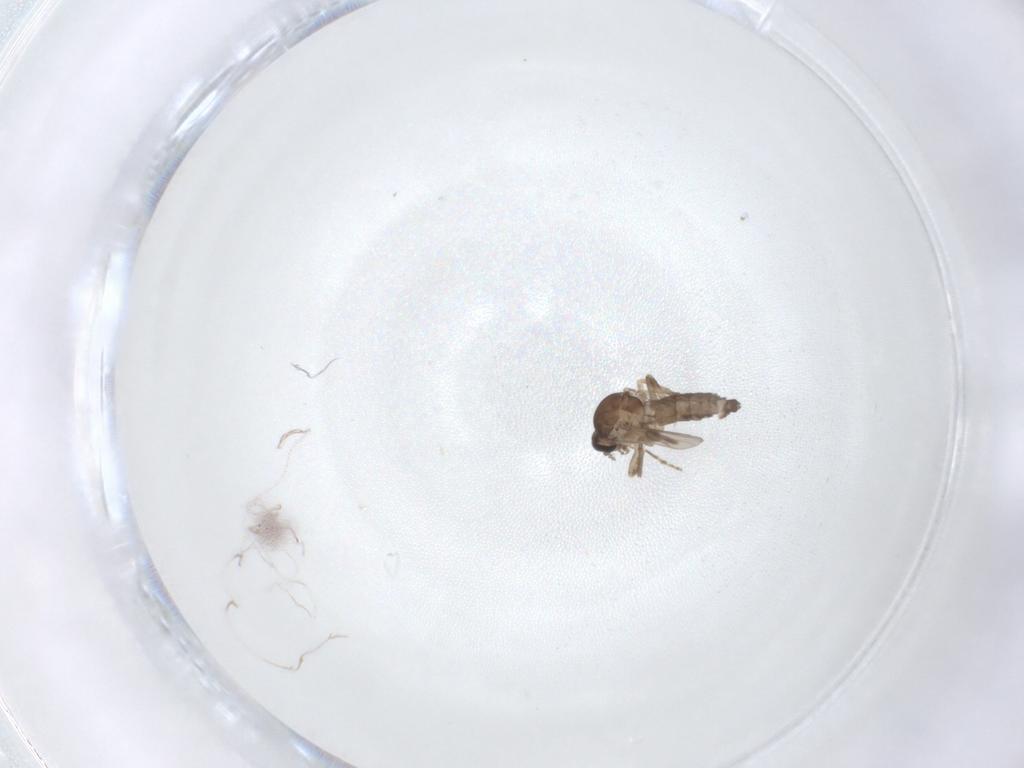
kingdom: Animalia
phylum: Arthropoda
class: Insecta
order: Diptera
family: Ceratopogonidae
